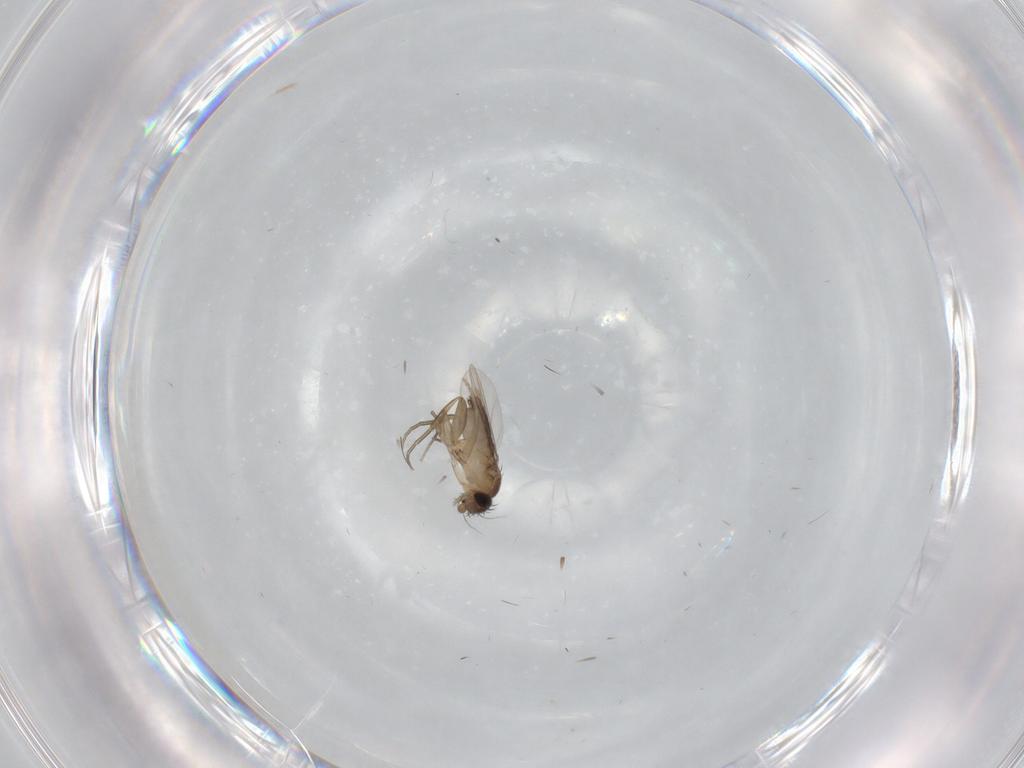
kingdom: Animalia
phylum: Arthropoda
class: Insecta
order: Diptera
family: Phoridae
